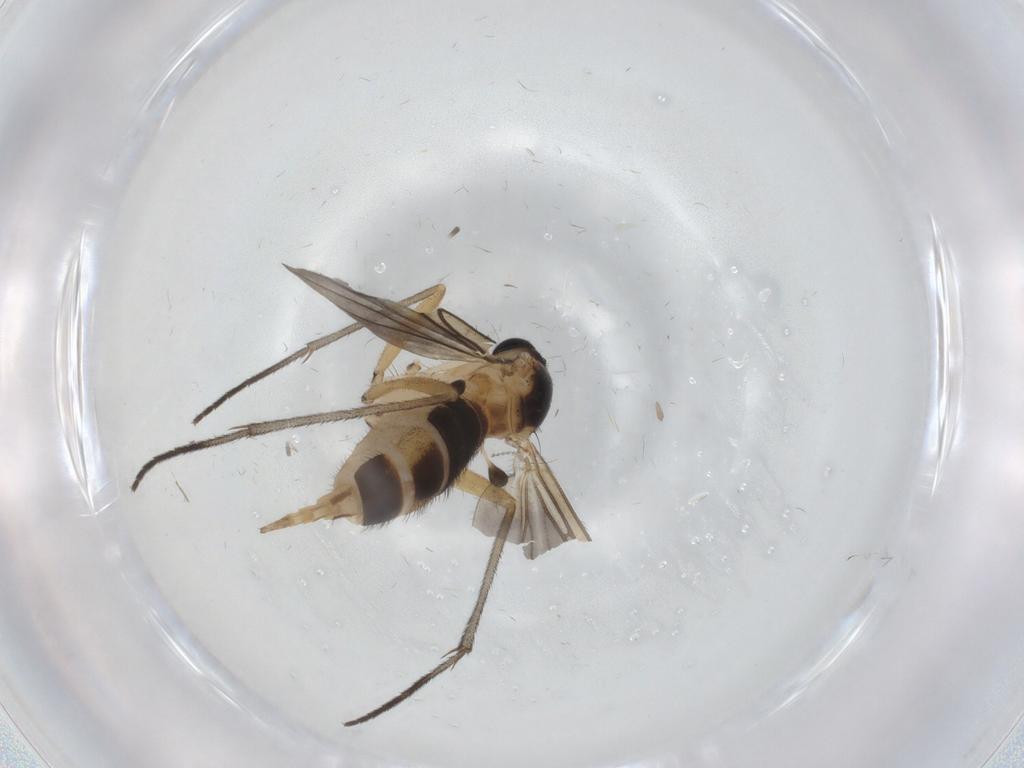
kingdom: Animalia
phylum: Arthropoda
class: Insecta
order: Diptera
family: Sciaridae
